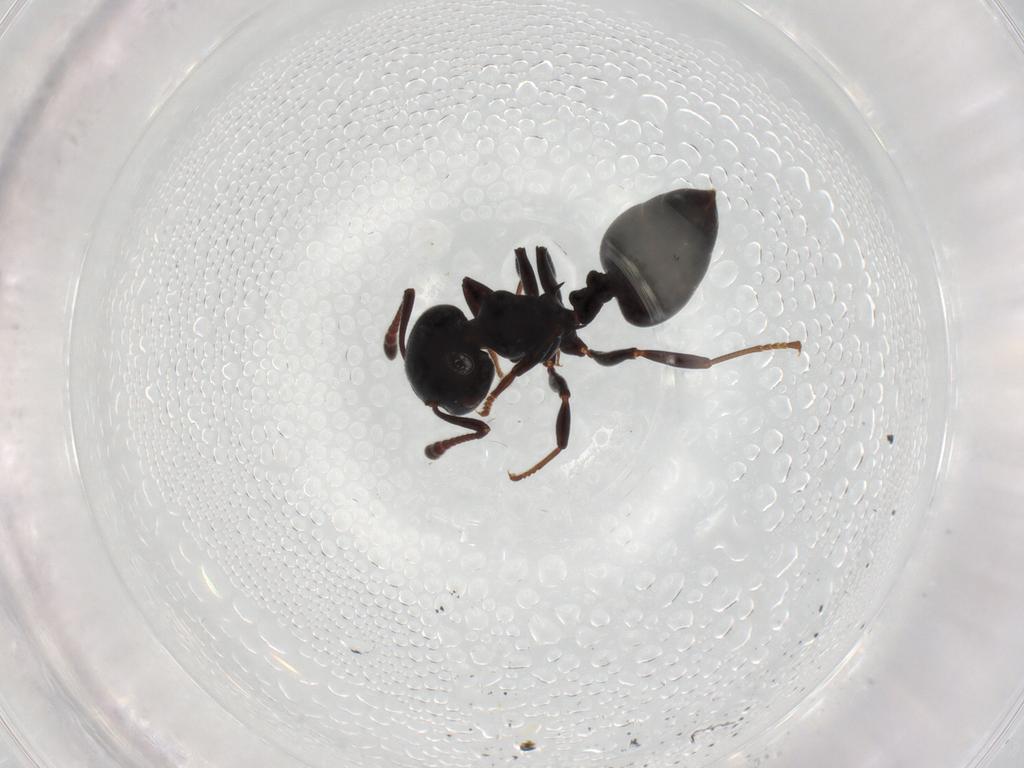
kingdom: Animalia
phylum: Arthropoda
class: Insecta
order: Hymenoptera
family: Formicidae
